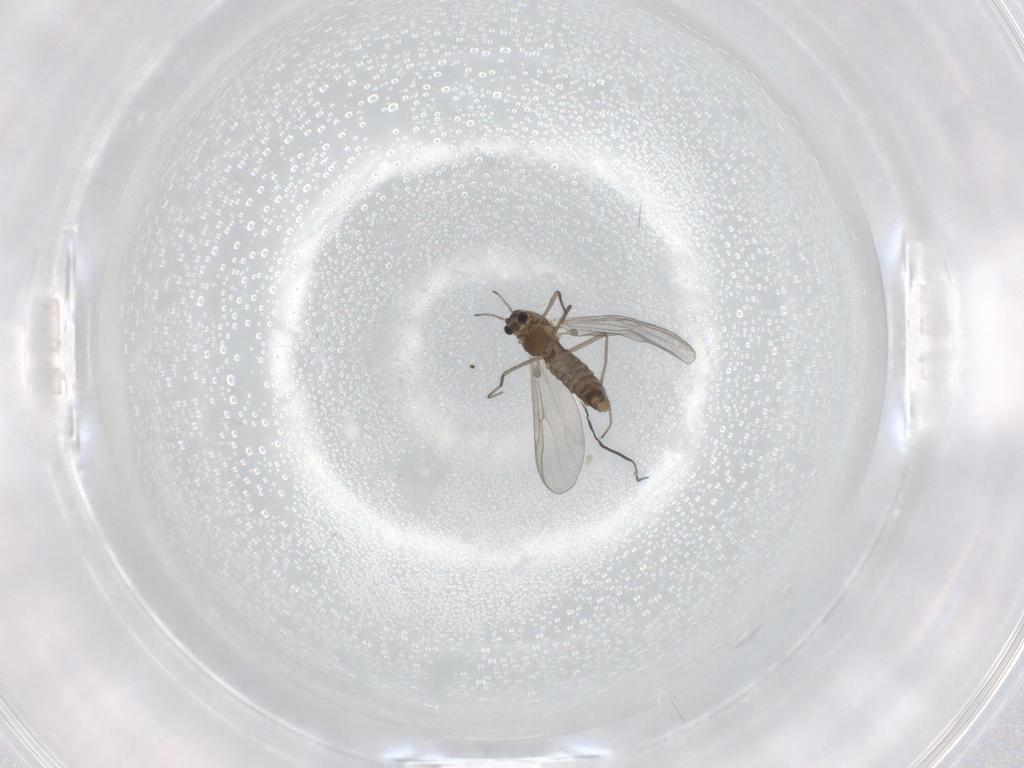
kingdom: Animalia
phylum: Arthropoda
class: Insecta
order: Diptera
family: Chironomidae
